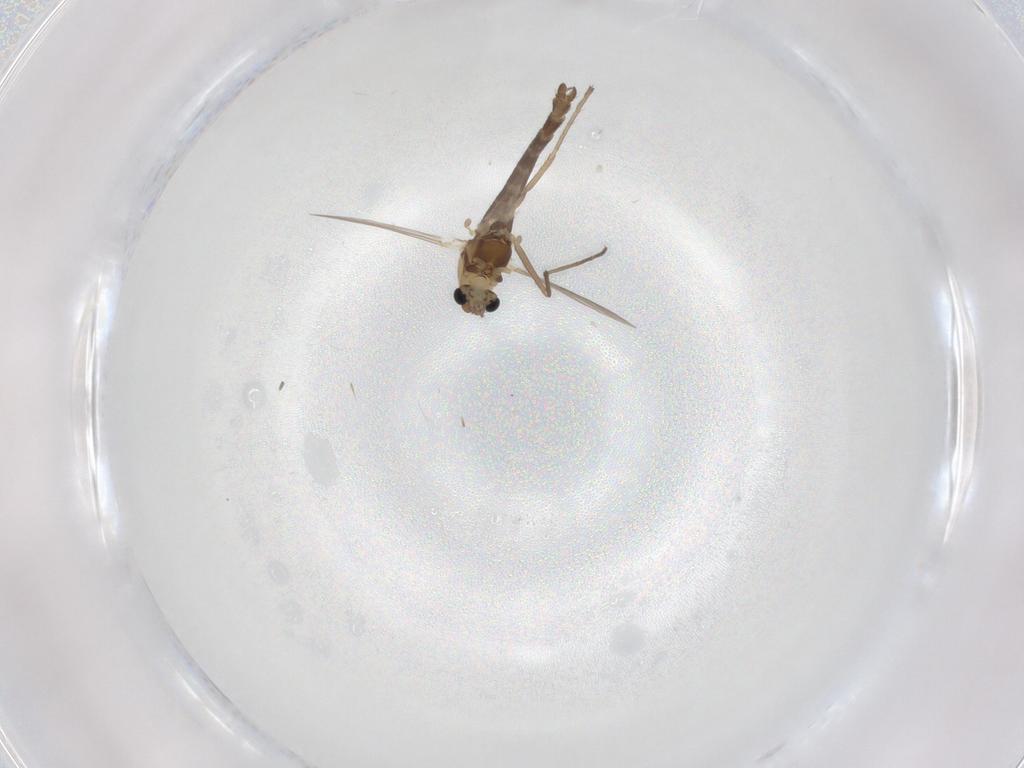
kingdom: Animalia
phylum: Arthropoda
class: Insecta
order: Diptera
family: Chironomidae
